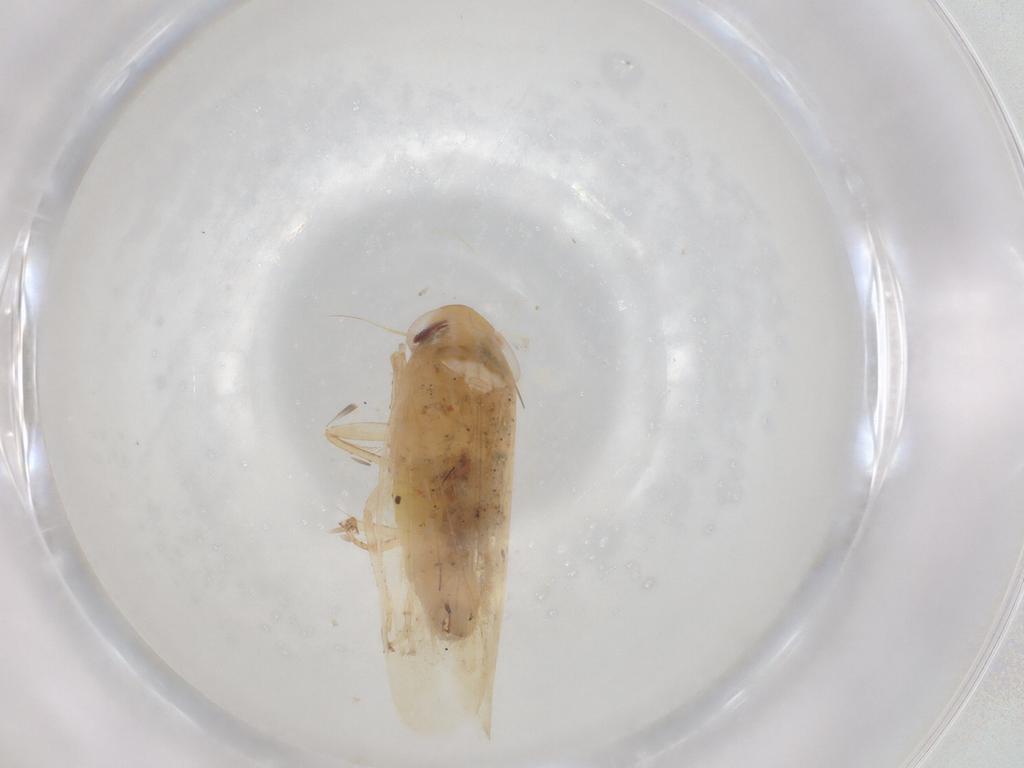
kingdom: Animalia
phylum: Arthropoda
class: Insecta
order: Hemiptera
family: Cicadellidae
